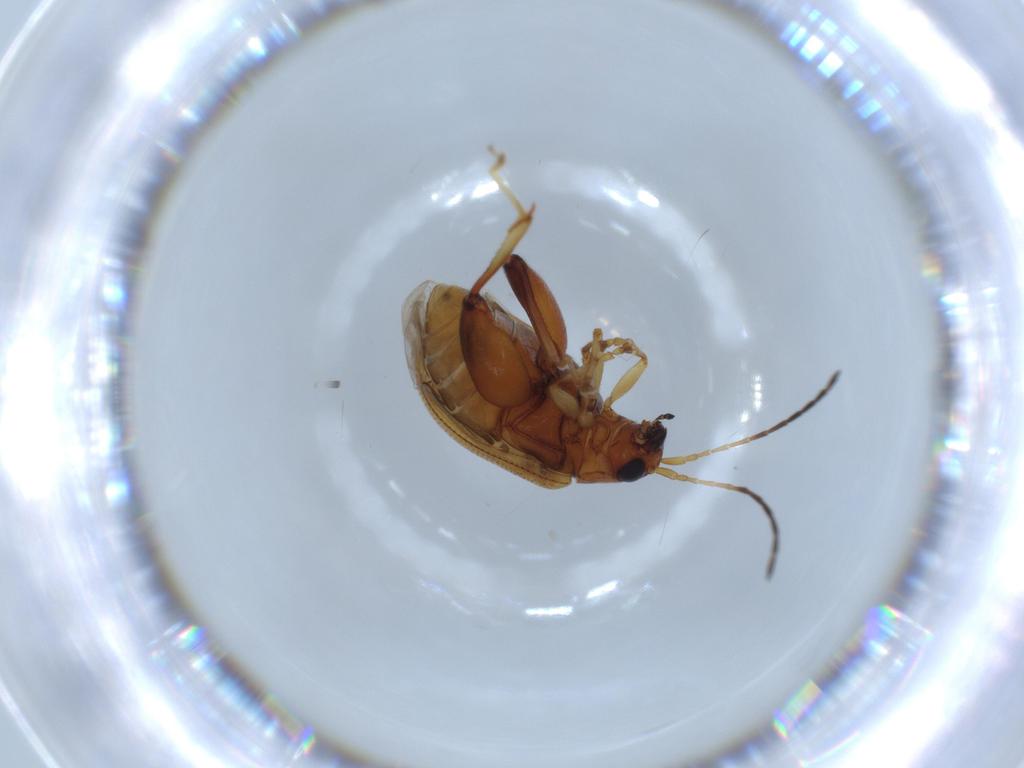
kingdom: Animalia
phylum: Arthropoda
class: Insecta
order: Coleoptera
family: Chrysomelidae
